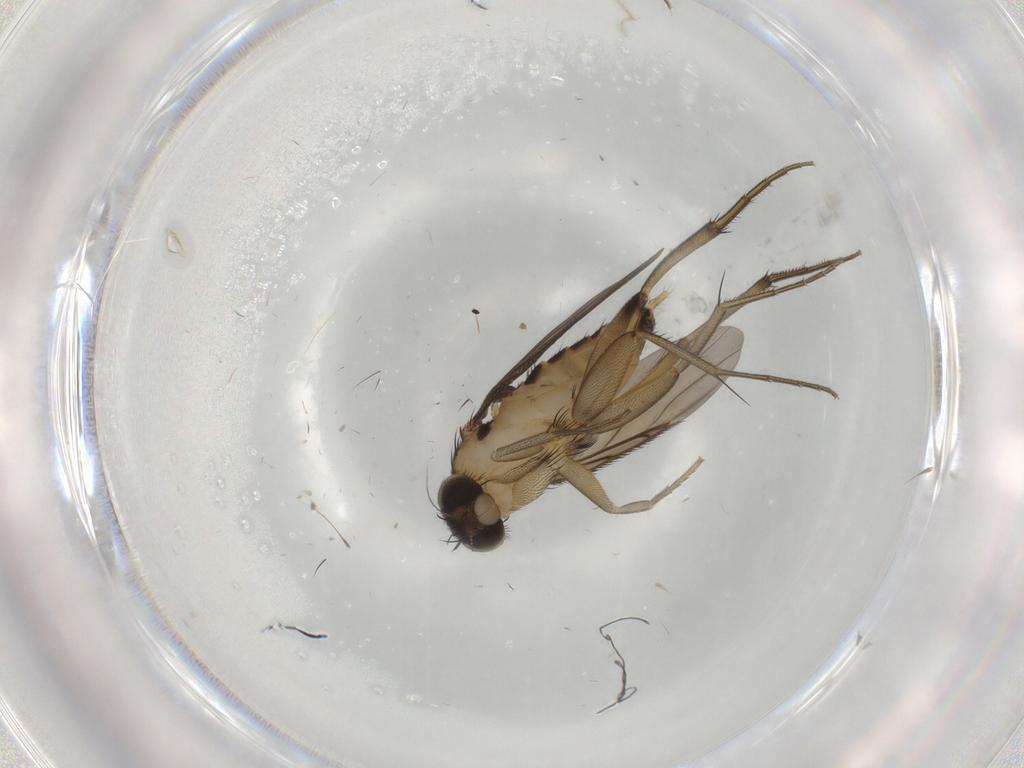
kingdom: Animalia
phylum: Arthropoda
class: Insecta
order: Diptera
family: Phoridae
